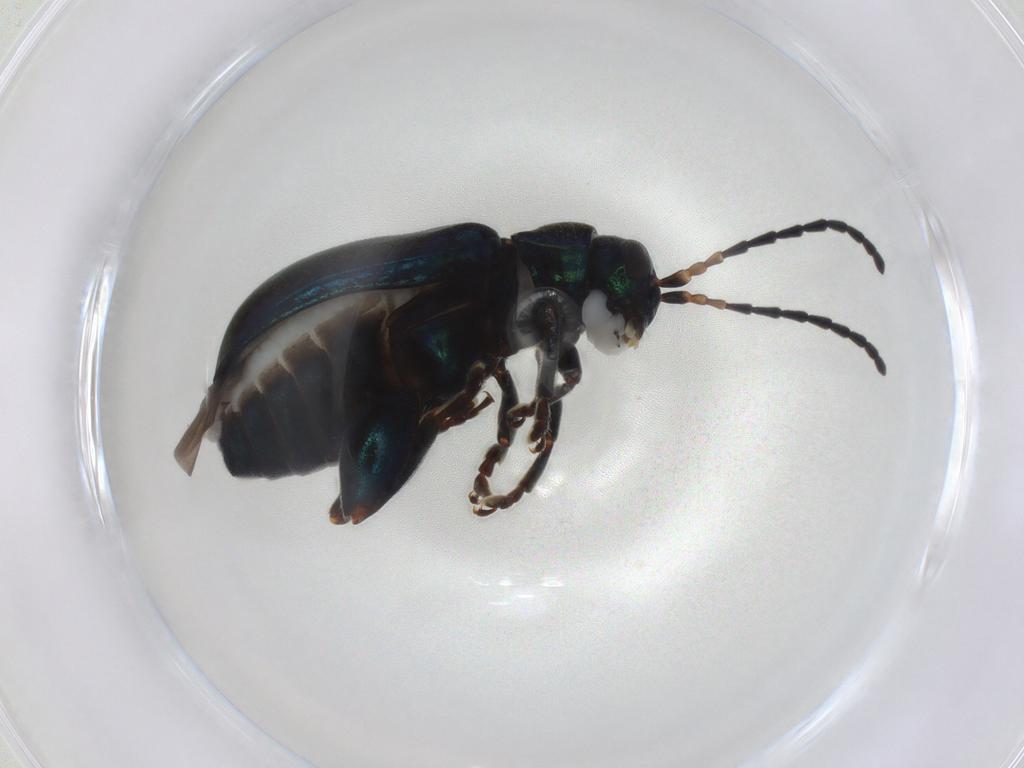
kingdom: Animalia
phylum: Arthropoda
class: Insecta
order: Coleoptera
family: Chrysomelidae
